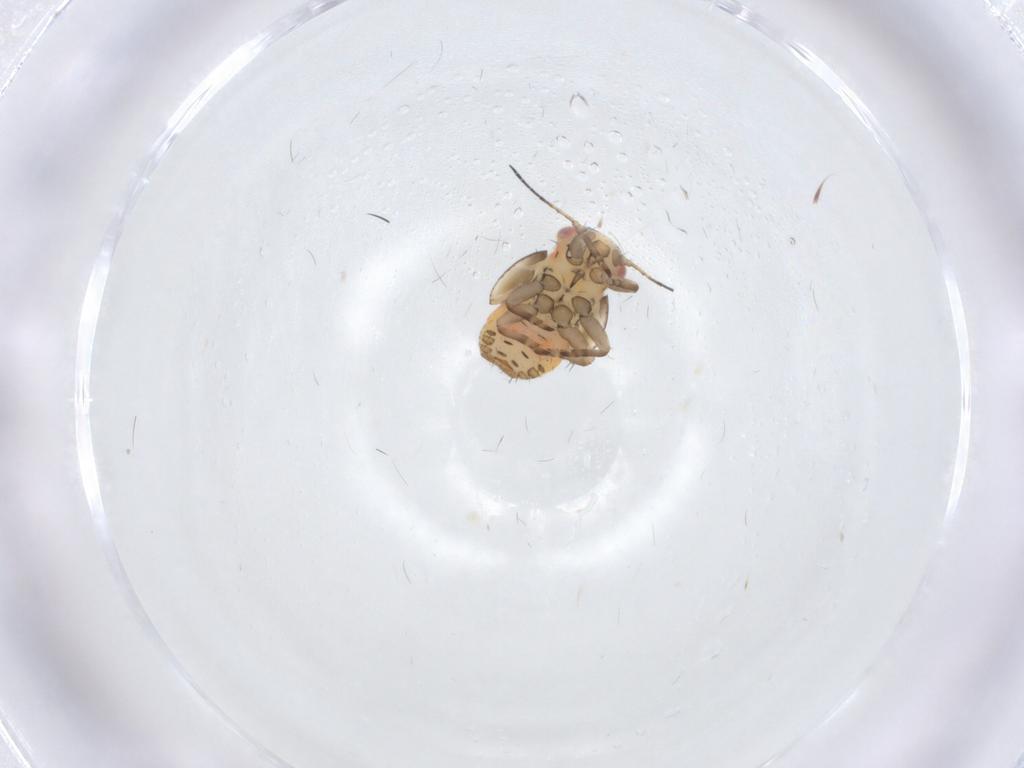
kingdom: Animalia
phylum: Arthropoda
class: Insecta
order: Hemiptera
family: Psyllidae
